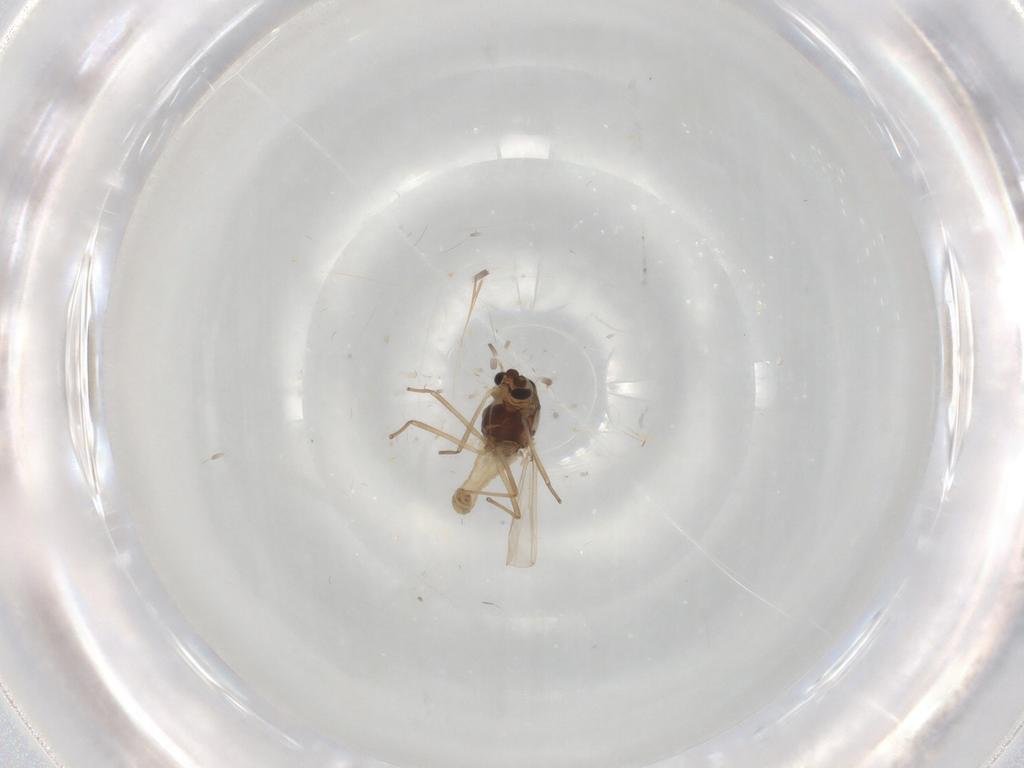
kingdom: Animalia
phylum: Arthropoda
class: Insecta
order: Diptera
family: Chironomidae
